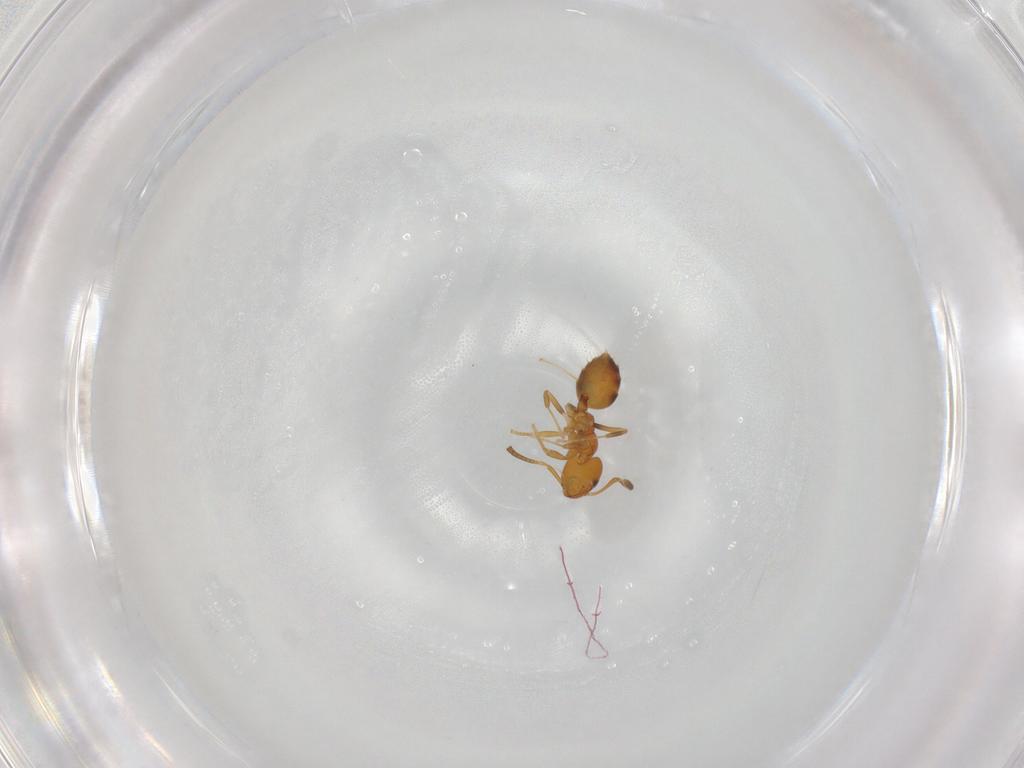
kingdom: Animalia
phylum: Arthropoda
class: Insecta
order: Hymenoptera
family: Formicidae
